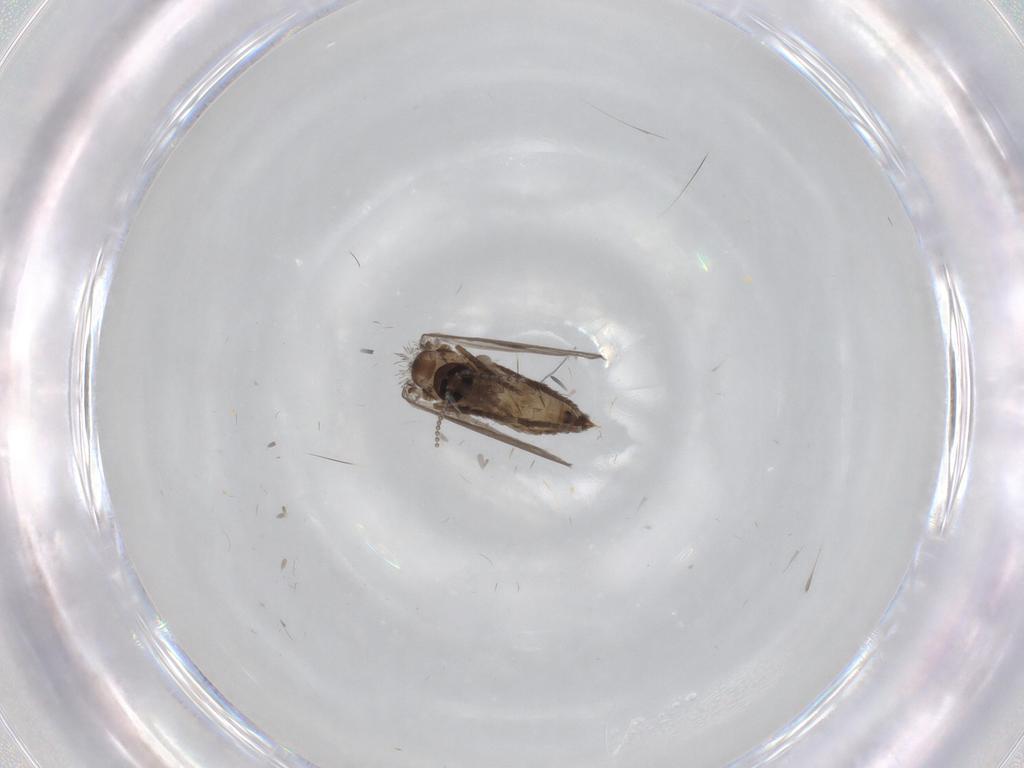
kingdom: Animalia
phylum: Arthropoda
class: Insecta
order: Diptera
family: Psychodidae
